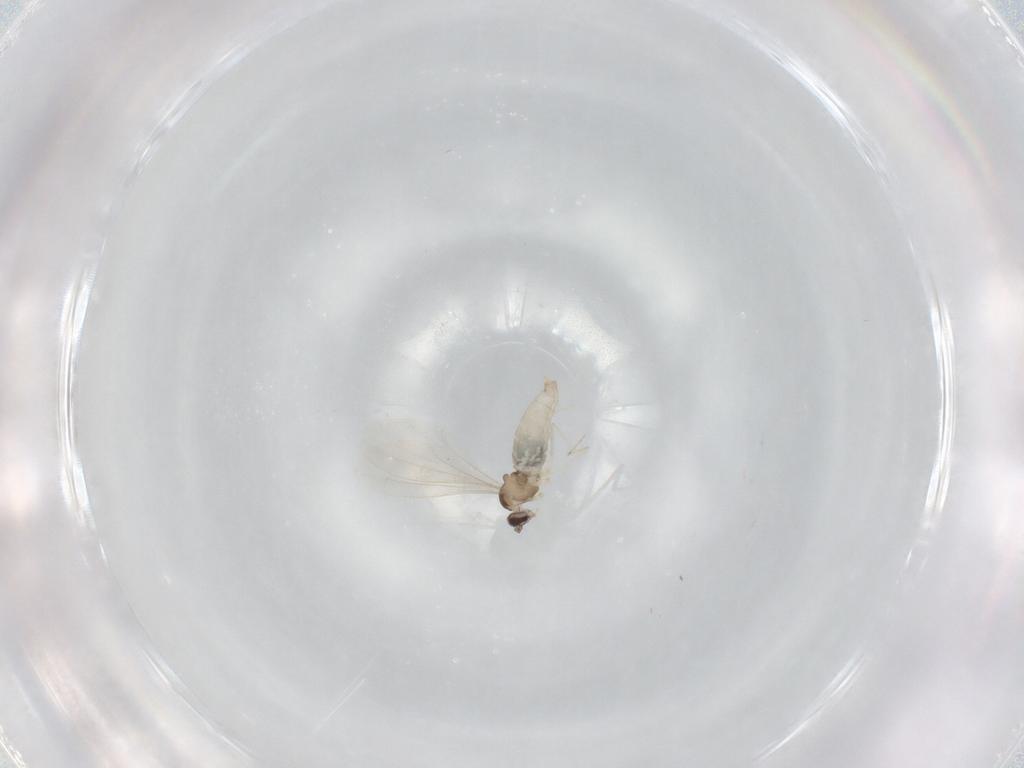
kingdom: Animalia
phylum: Arthropoda
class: Insecta
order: Diptera
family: Cecidomyiidae
